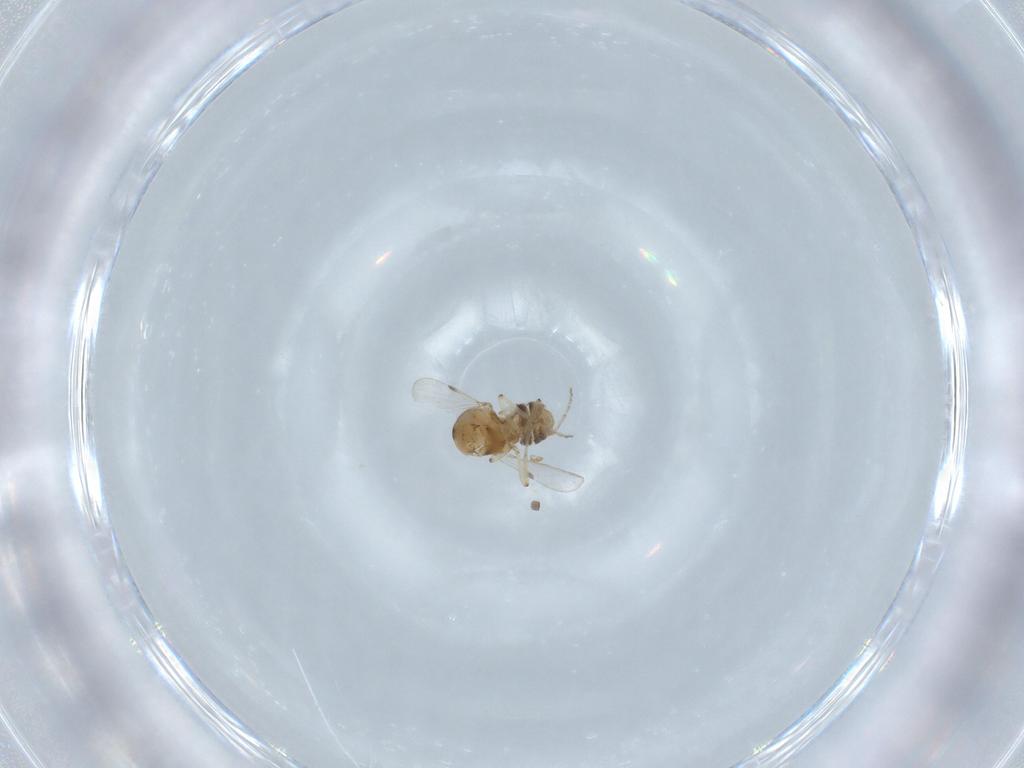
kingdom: Animalia
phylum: Arthropoda
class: Insecta
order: Diptera
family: Ceratopogonidae
